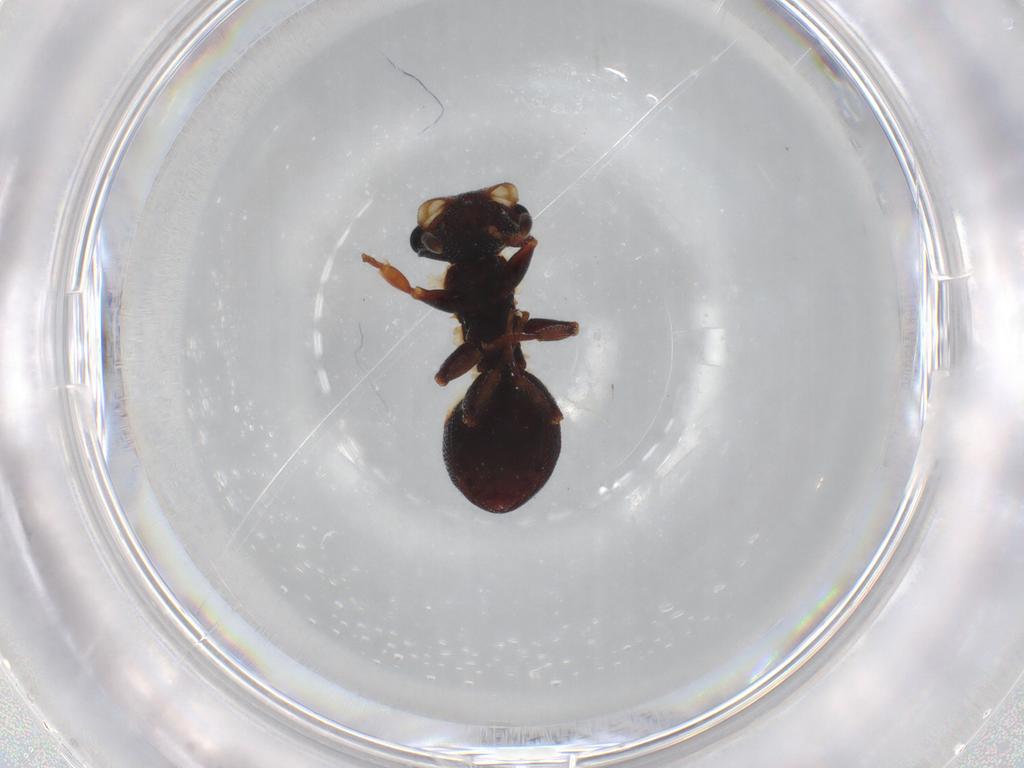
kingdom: Animalia
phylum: Arthropoda
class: Insecta
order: Hymenoptera
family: Formicidae
